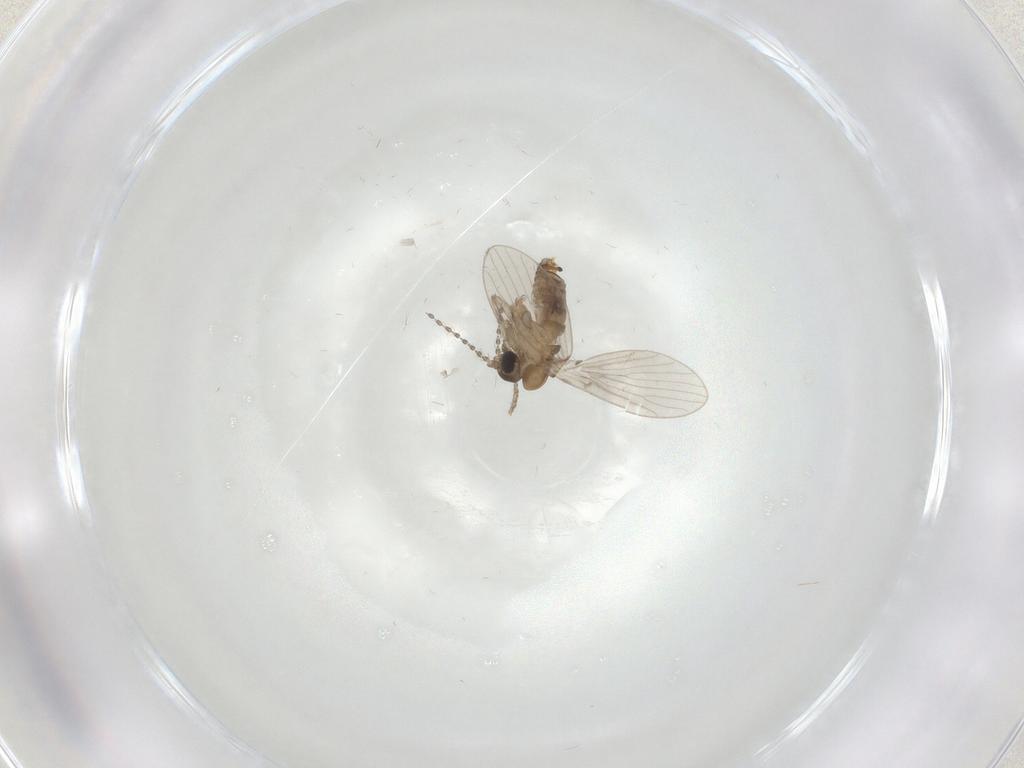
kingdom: Animalia
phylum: Arthropoda
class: Insecta
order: Diptera
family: Psychodidae
